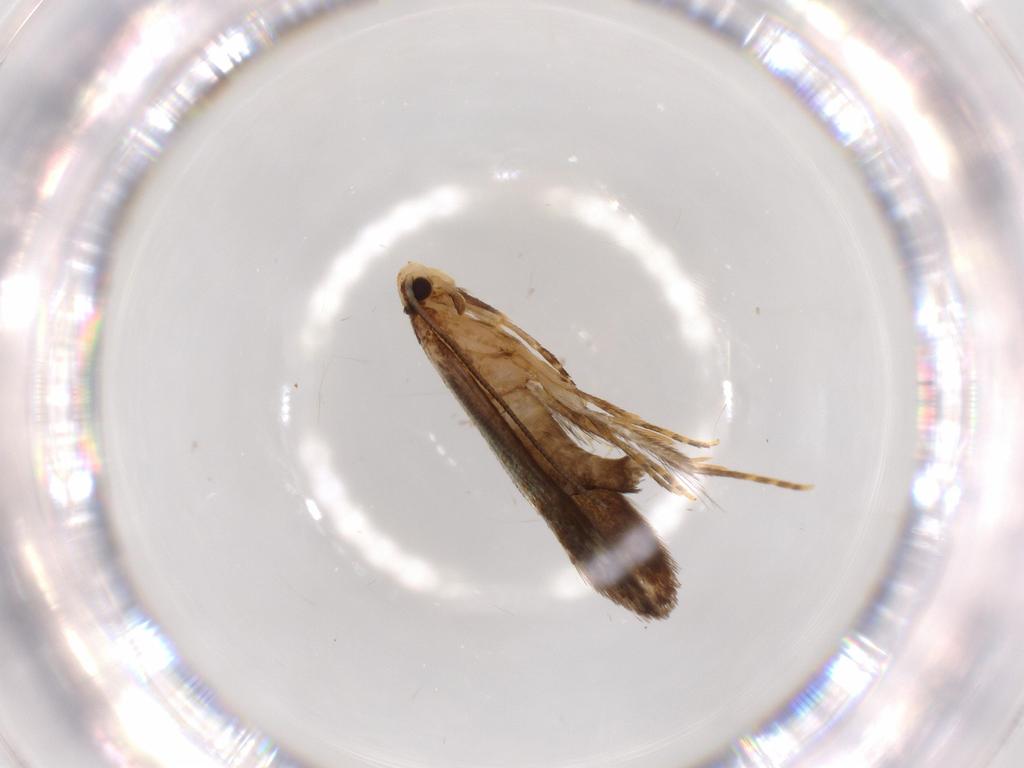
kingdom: Animalia
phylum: Arthropoda
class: Insecta
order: Lepidoptera
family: Tineidae
